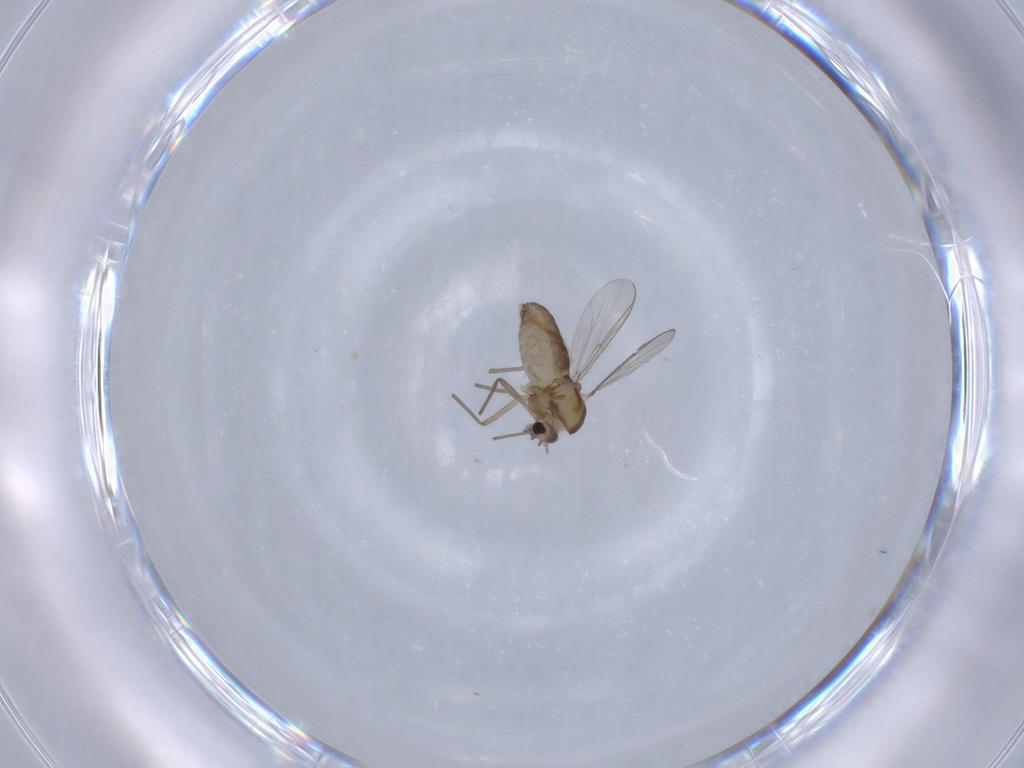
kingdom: Animalia
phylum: Arthropoda
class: Insecta
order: Diptera
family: Chironomidae
